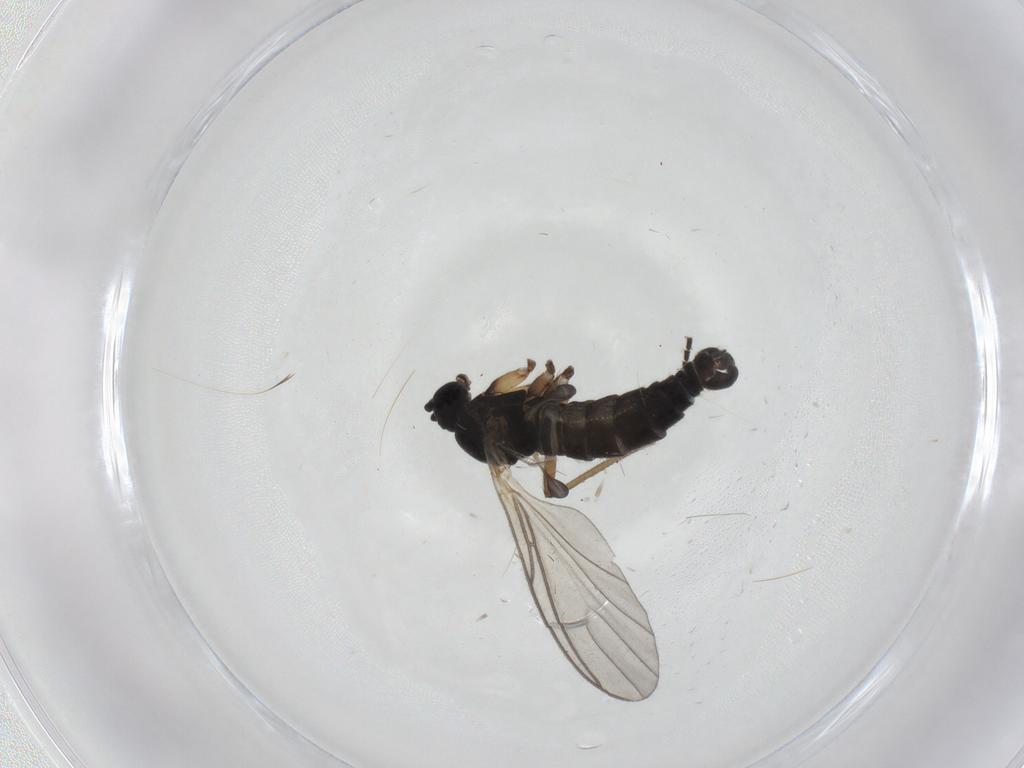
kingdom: Animalia
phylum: Arthropoda
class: Insecta
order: Diptera
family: Sciaridae
